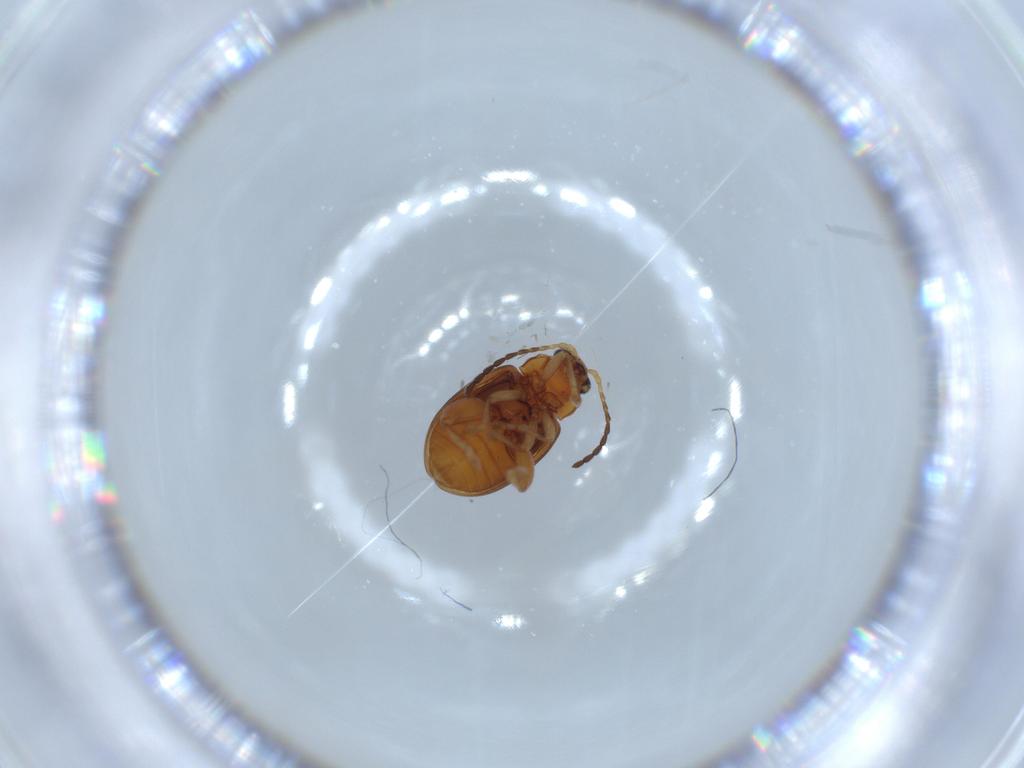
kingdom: Animalia
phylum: Arthropoda
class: Insecta
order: Coleoptera
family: Chrysomelidae
